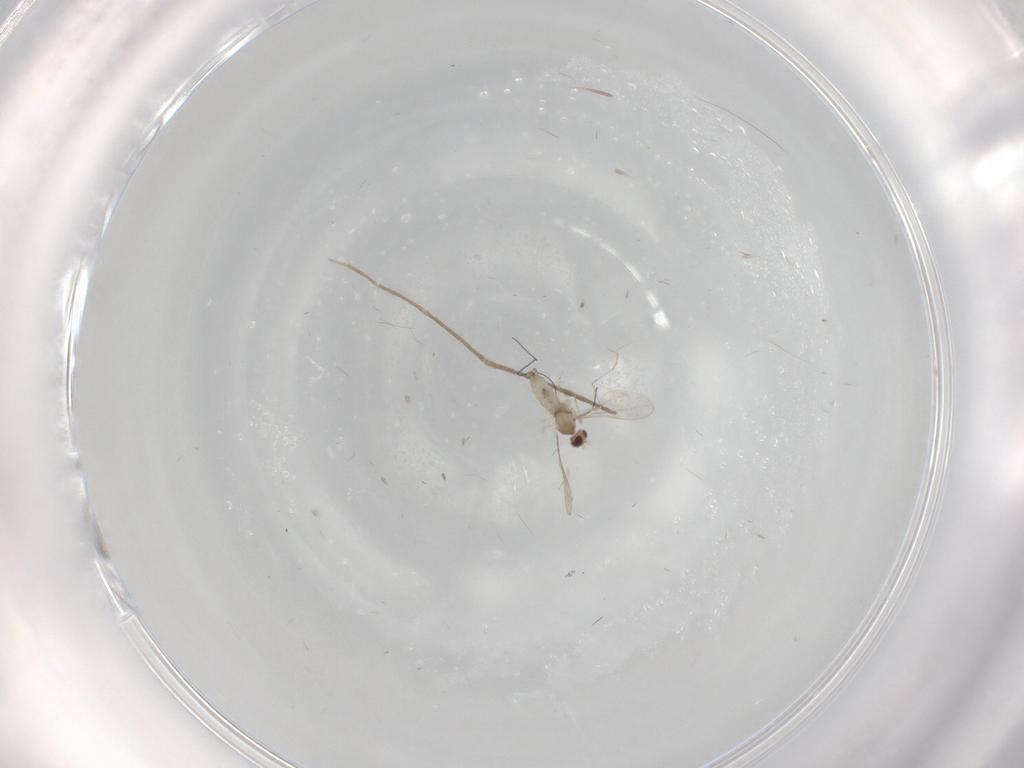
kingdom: Animalia
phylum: Arthropoda
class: Insecta
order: Diptera
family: Cecidomyiidae
